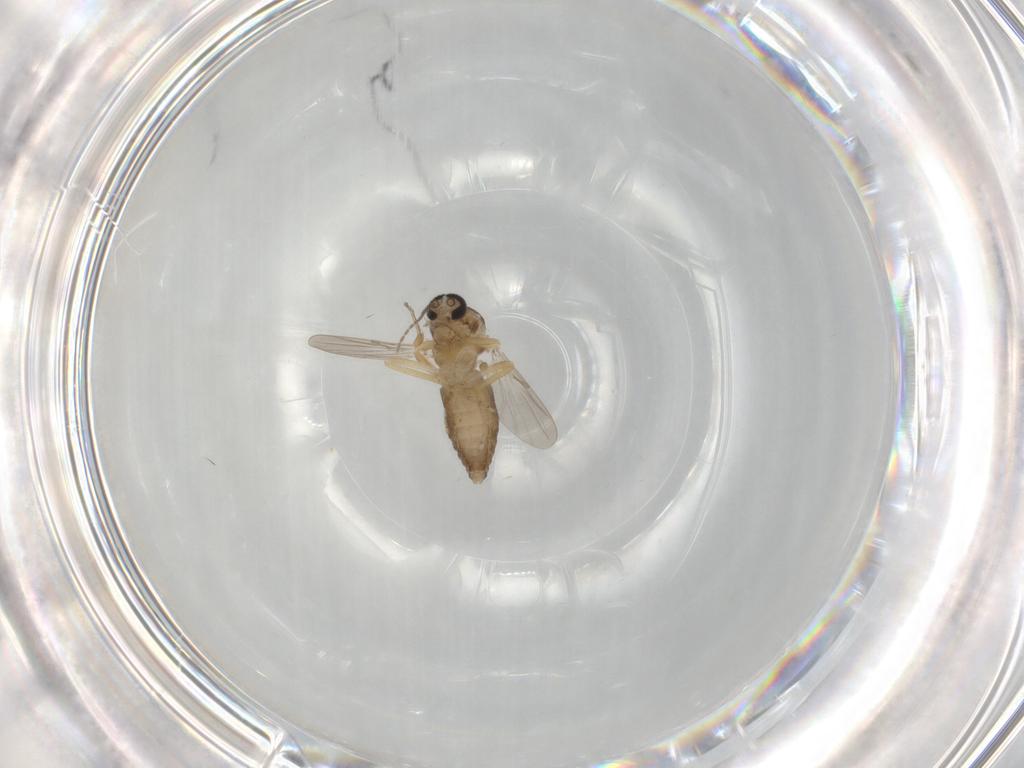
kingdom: Animalia
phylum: Arthropoda
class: Insecta
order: Diptera
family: Ceratopogonidae
